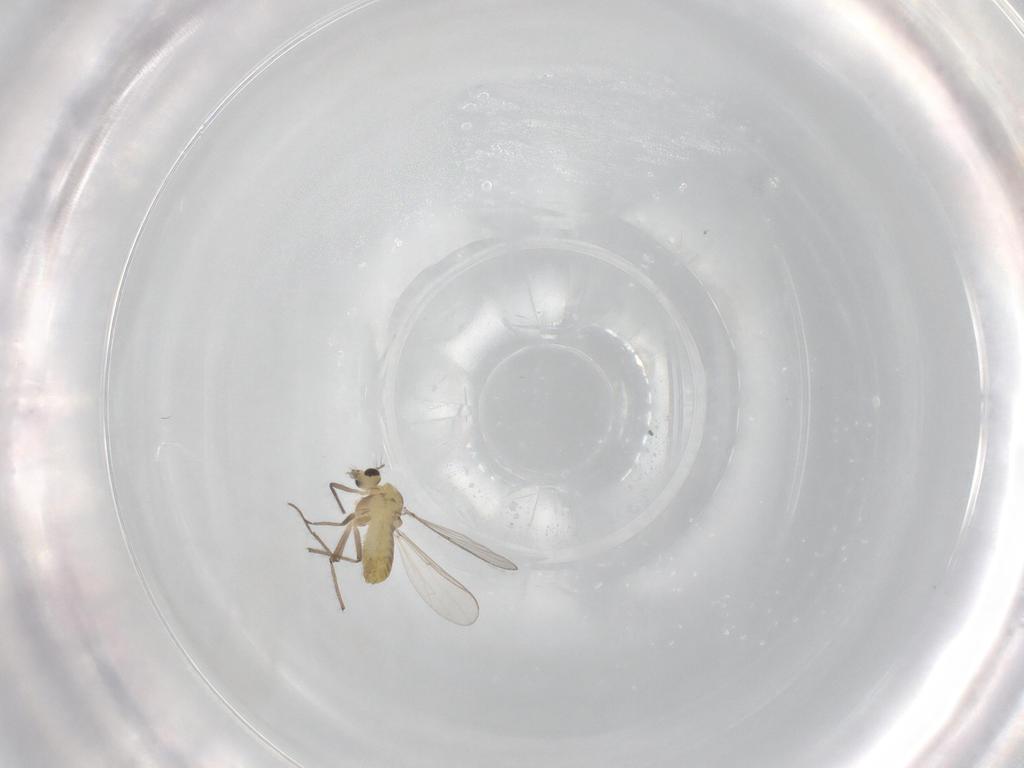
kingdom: Animalia
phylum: Arthropoda
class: Insecta
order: Diptera
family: Chironomidae
